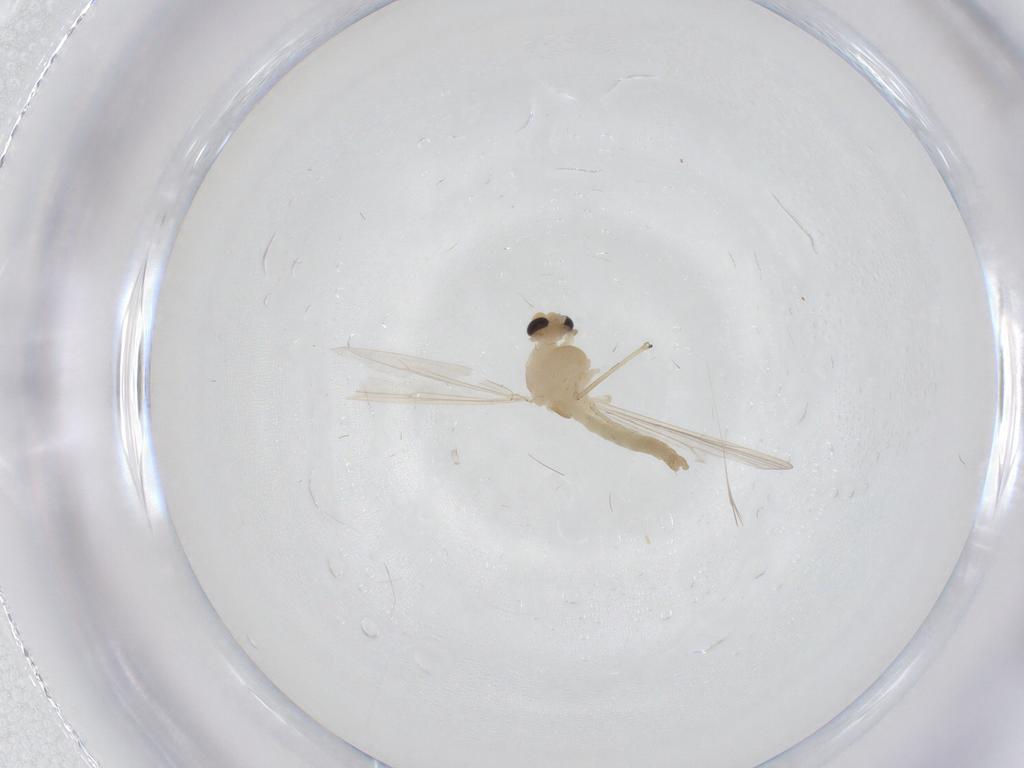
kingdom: Animalia
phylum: Arthropoda
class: Insecta
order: Diptera
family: Chironomidae
